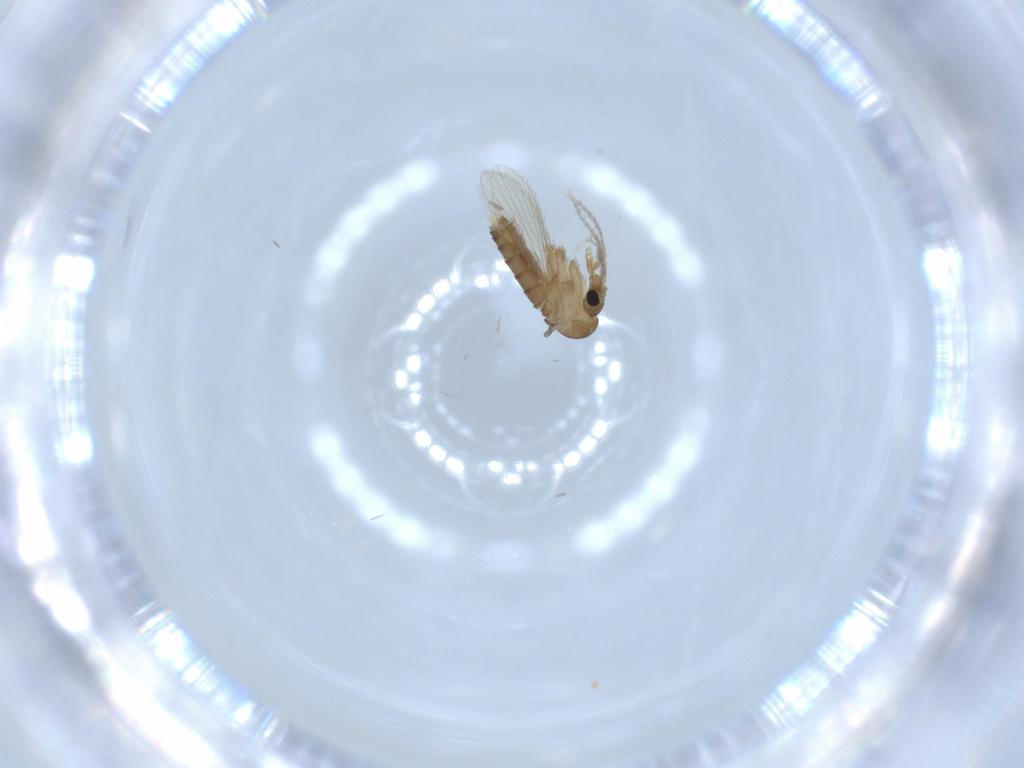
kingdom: Animalia
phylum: Arthropoda
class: Insecta
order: Diptera
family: Psychodidae
